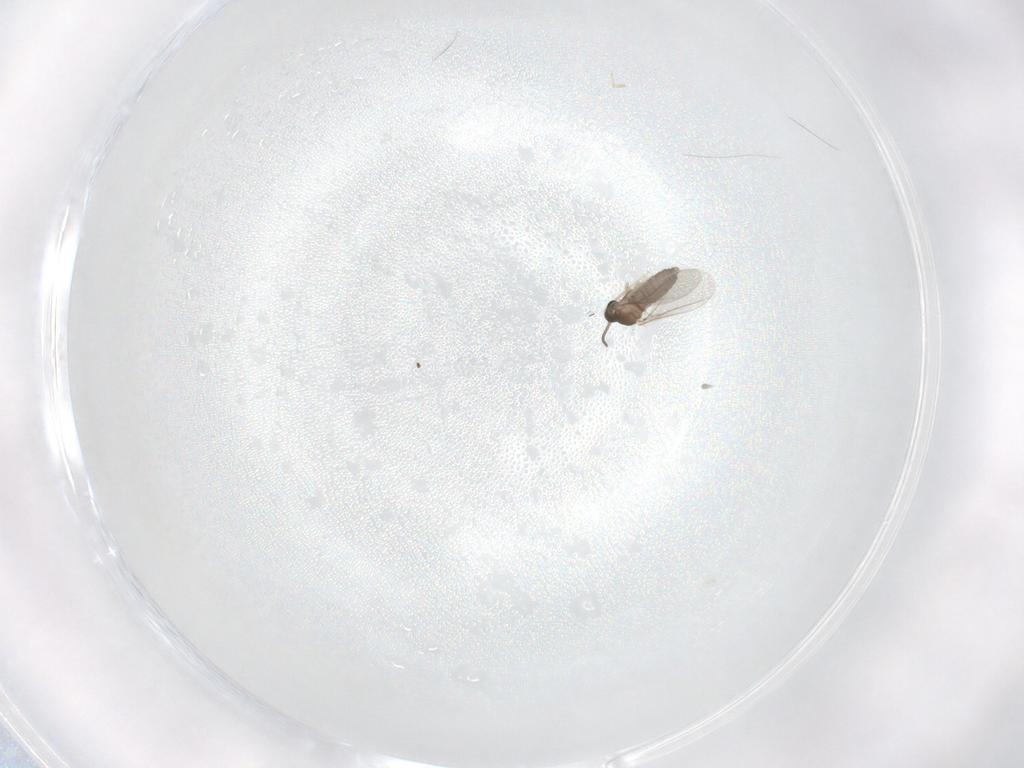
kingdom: Animalia
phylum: Arthropoda
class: Insecta
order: Diptera
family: Cecidomyiidae
